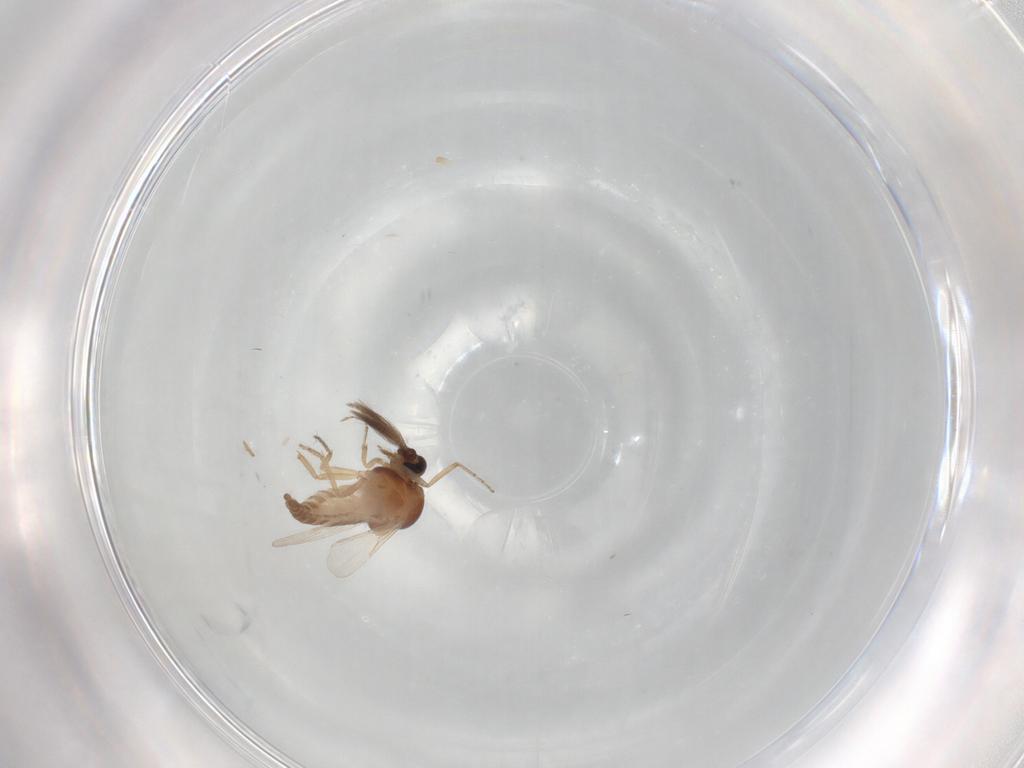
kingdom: Animalia
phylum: Arthropoda
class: Insecta
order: Diptera
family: Ceratopogonidae
